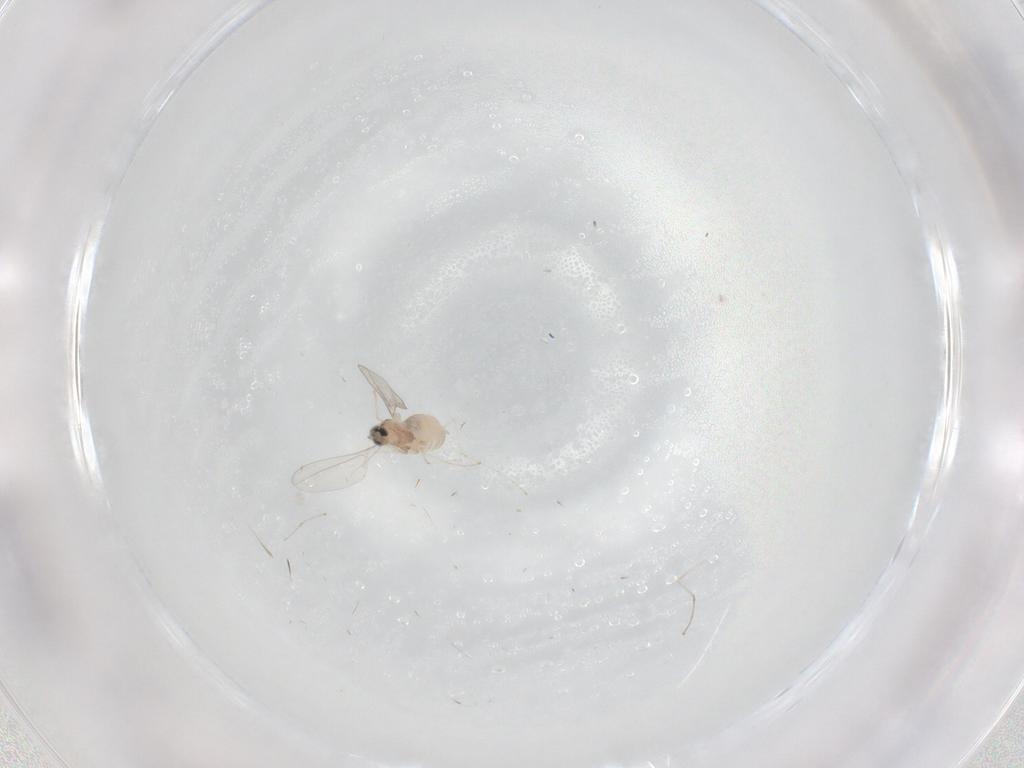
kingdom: Animalia
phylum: Arthropoda
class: Insecta
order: Diptera
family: Cecidomyiidae
